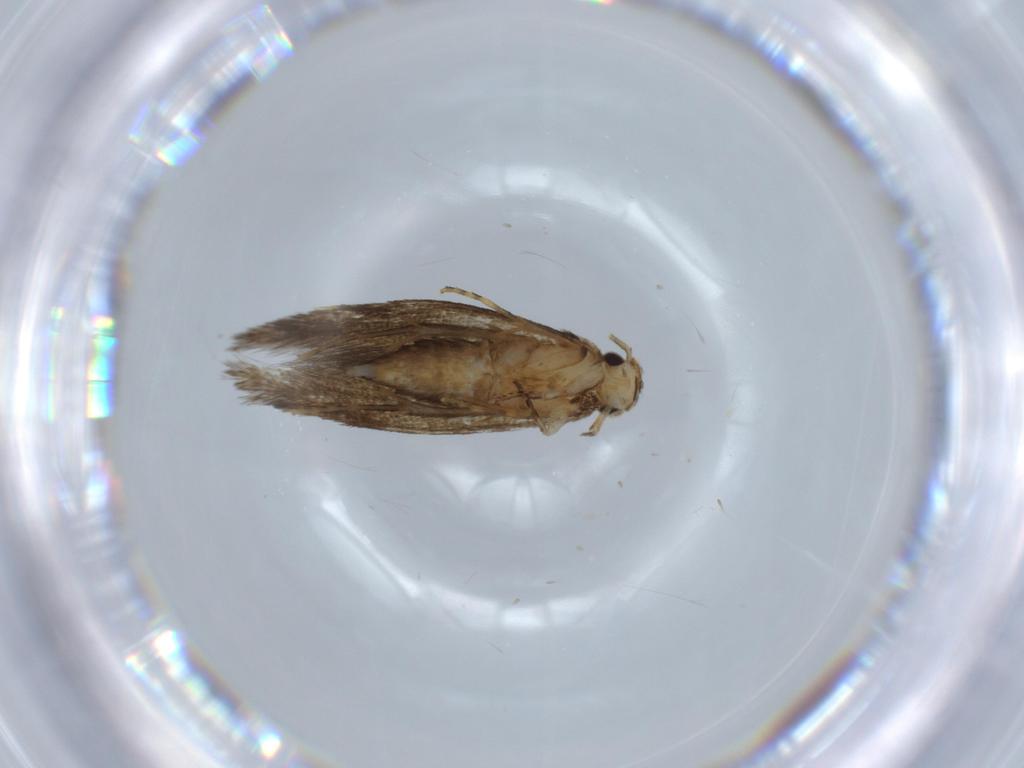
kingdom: Animalia
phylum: Arthropoda
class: Insecta
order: Lepidoptera
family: Tineidae
